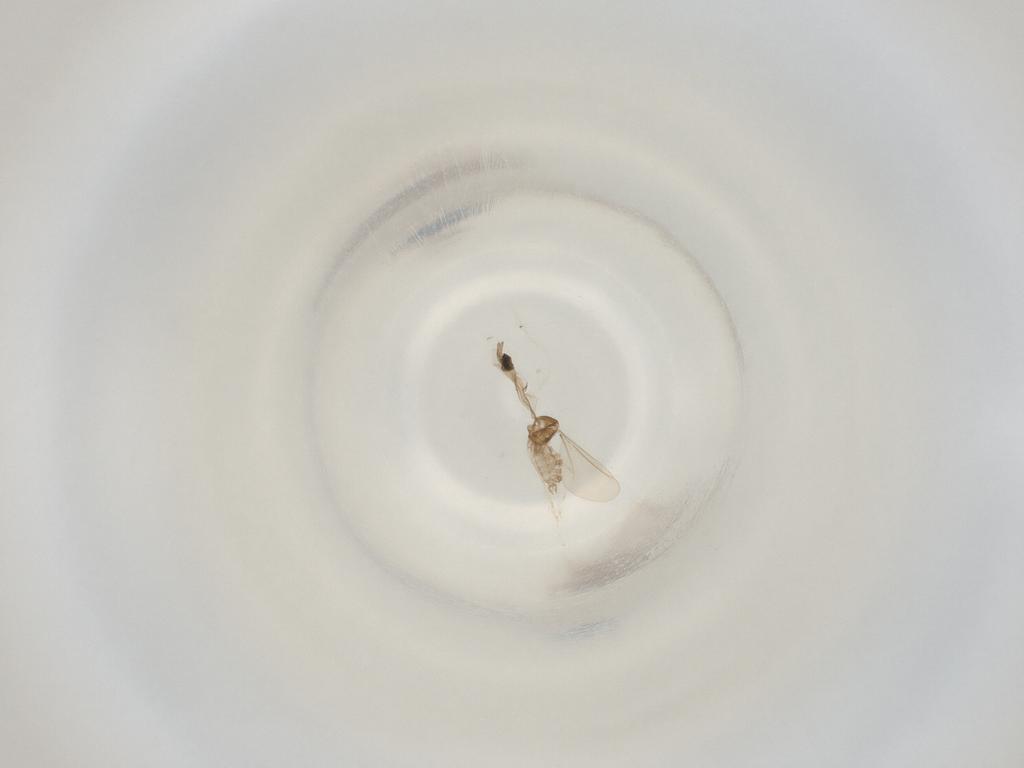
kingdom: Animalia
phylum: Arthropoda
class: Insecta
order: Diptera
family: Cecidomyiidae
